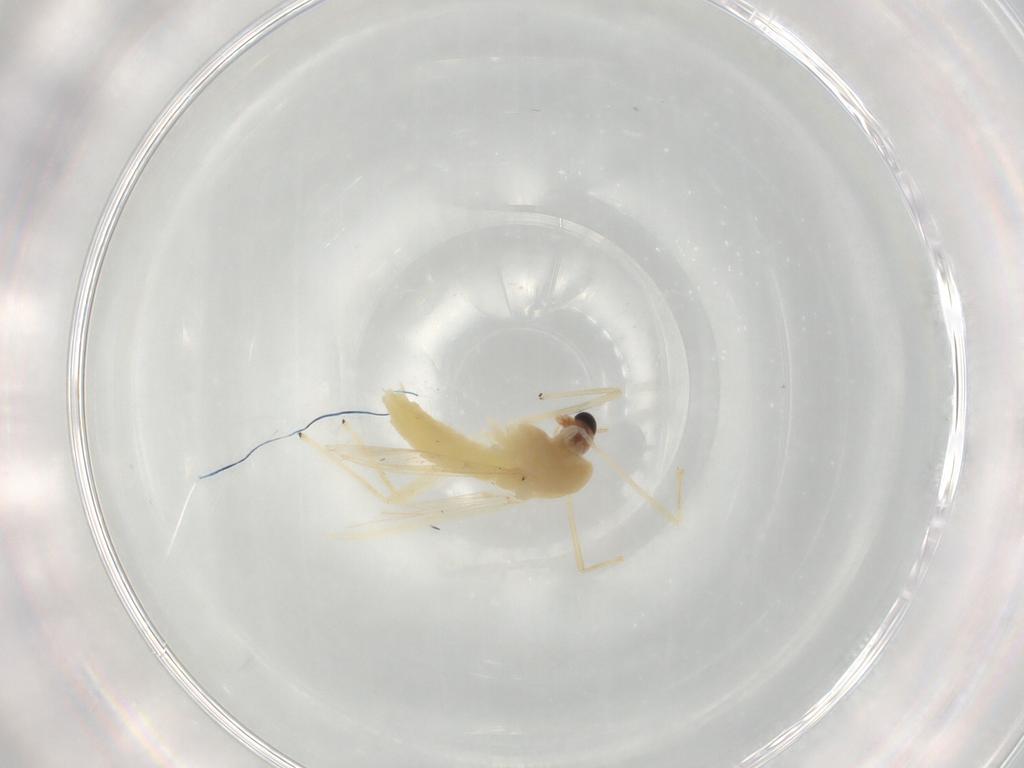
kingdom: Animalia
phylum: Arthropoda
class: Insecta
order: Diptera
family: Chironomidae
